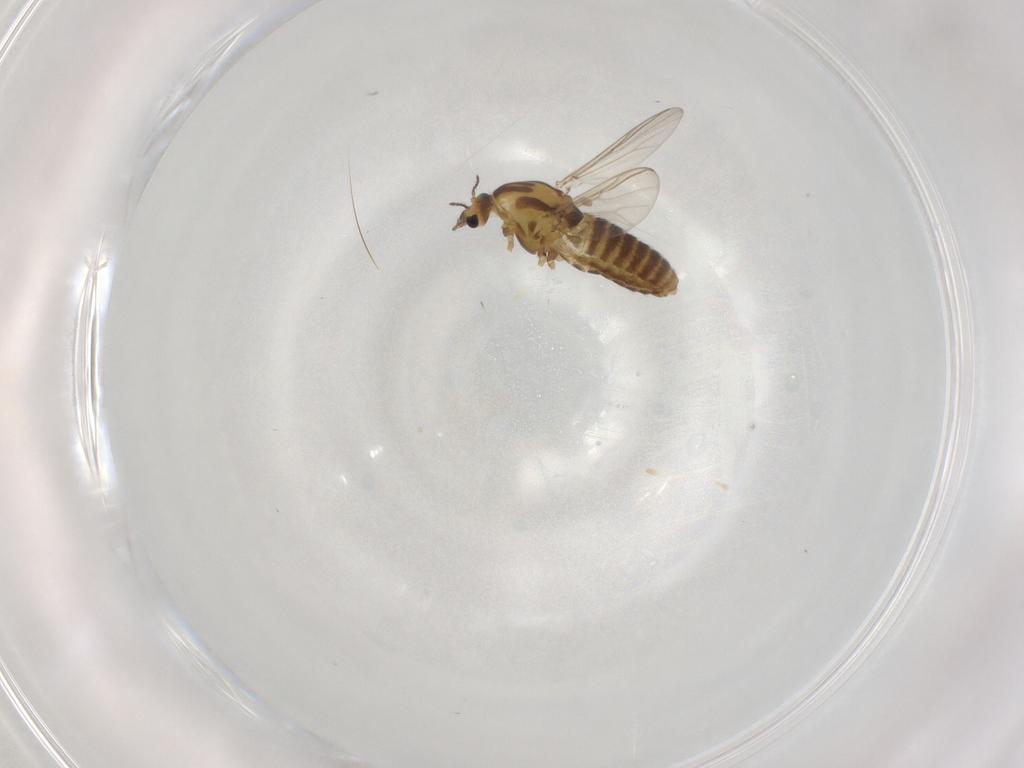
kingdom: Animalia
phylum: Arthropoda
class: Insecta
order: Diptera
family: Chironomidae
